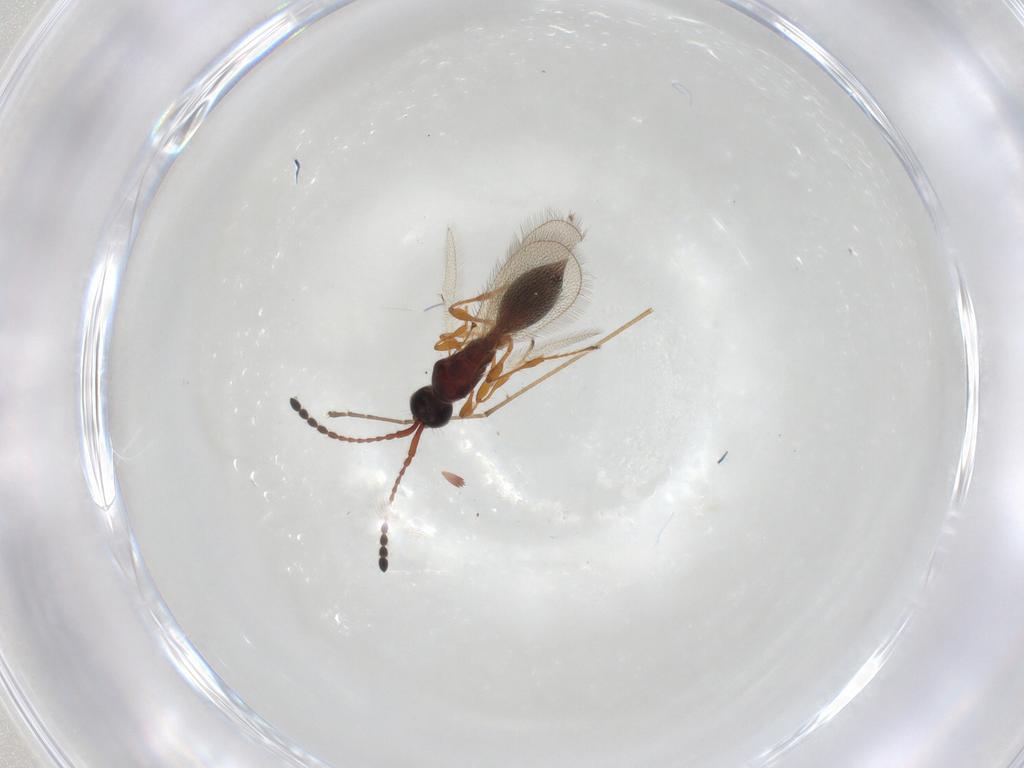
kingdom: Animalia
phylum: Arthropoda
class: Insecta
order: Hymenoptera
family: Diapriidae
